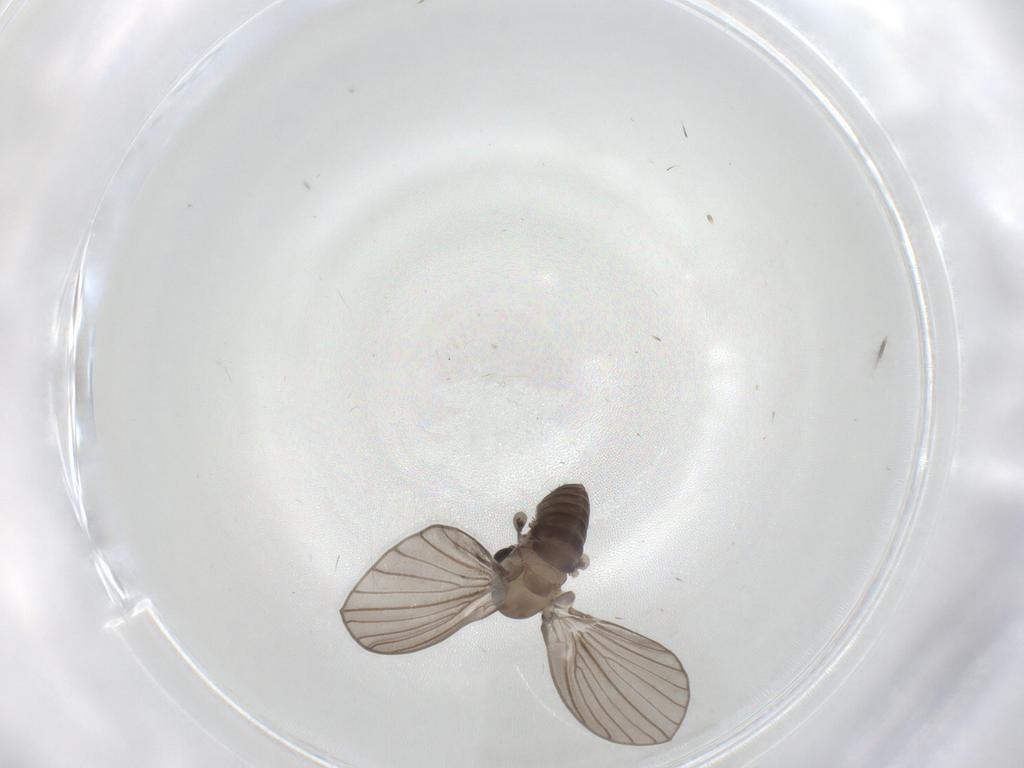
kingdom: Animalia
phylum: Arthropoda
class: Insecta
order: Diptera
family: Psychodidae
